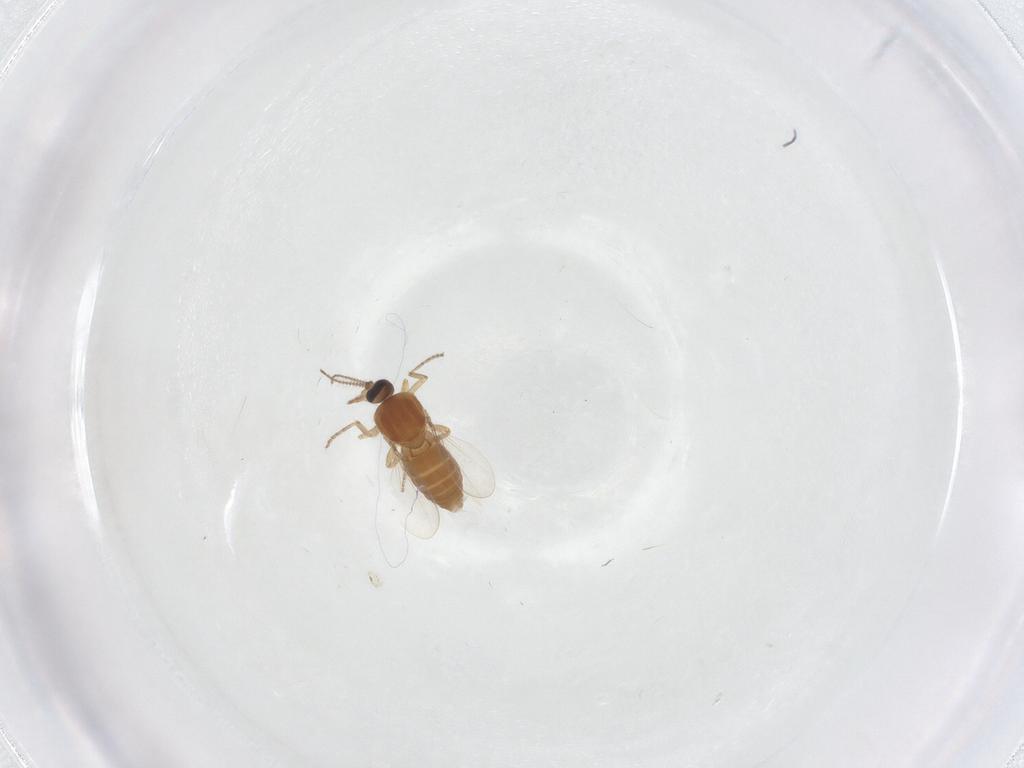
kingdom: Animalia
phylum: Arthropoda
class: Insecta
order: Diptera
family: Ceratopogonidae
